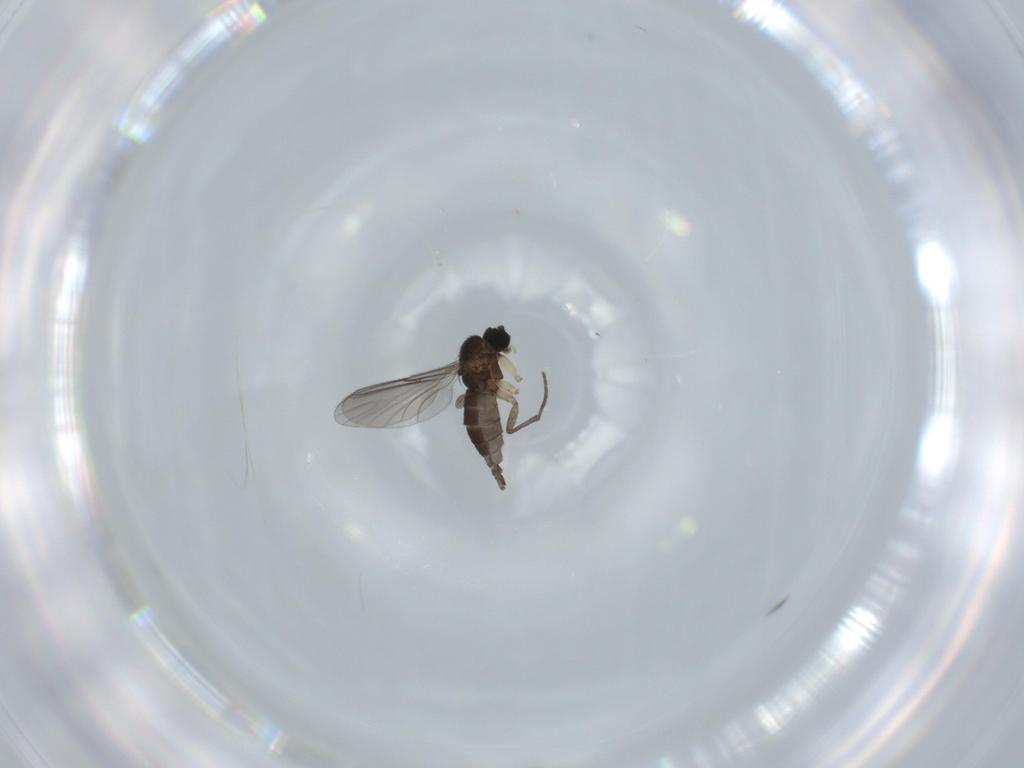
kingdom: Animalia
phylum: Arthropoda
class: Insecta
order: Diptera
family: Sciaridae
